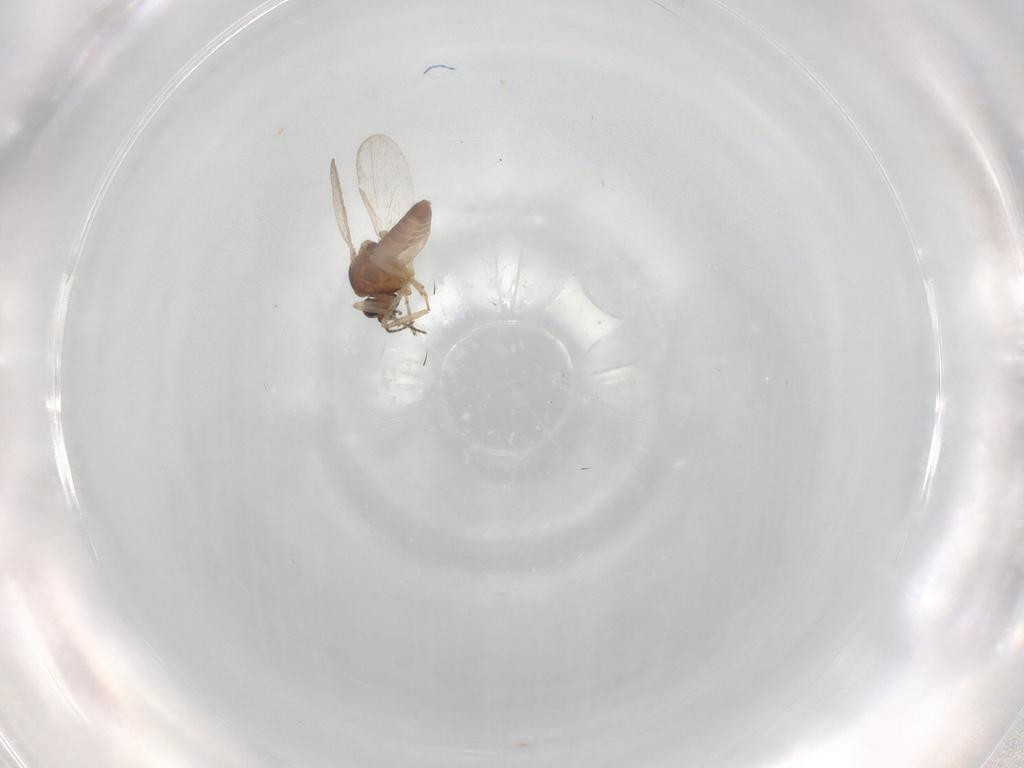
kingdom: Animalia
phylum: Arthropoda
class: Insecta
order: Diptera
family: Ceratopogonidae
